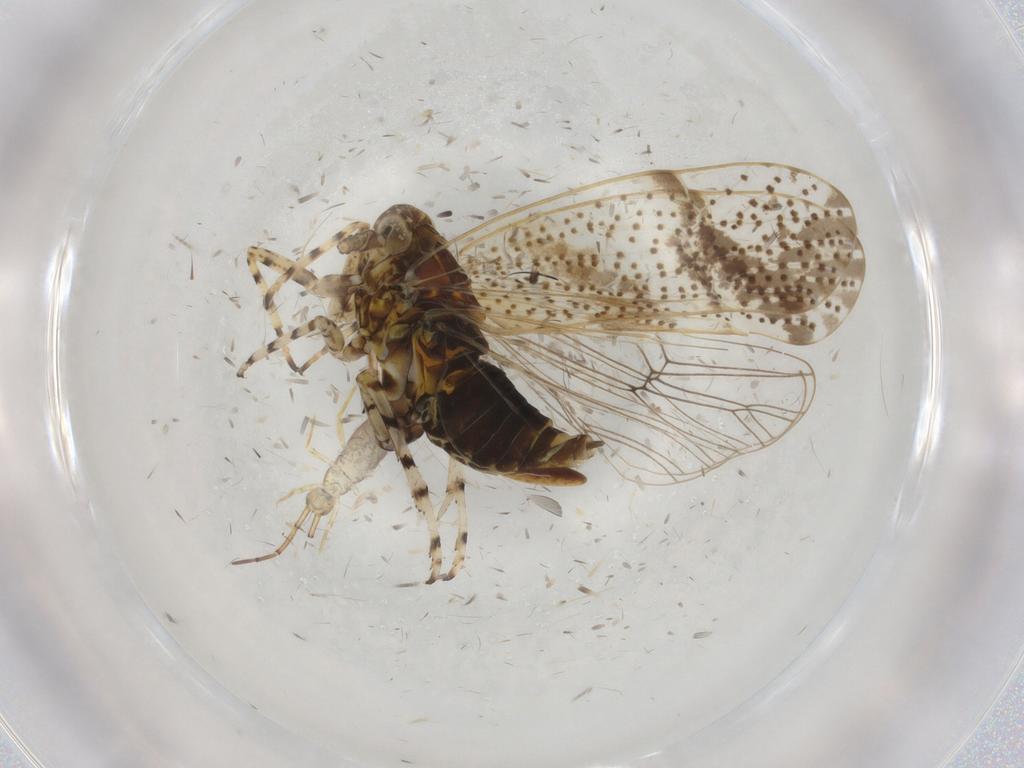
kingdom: Animalia
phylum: Arthropoda
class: Insecta
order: Hemiptera
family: Delphacidae
